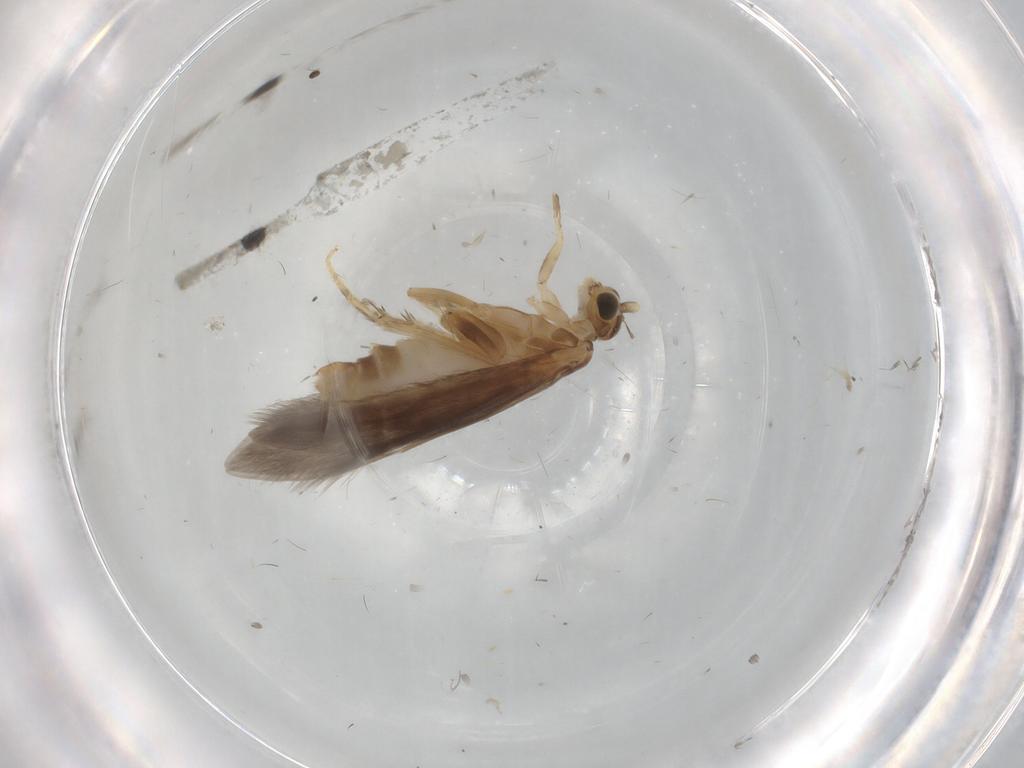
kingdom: Animalia
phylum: Arthropoda
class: Insecta
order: Trichoptera
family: Glossosomatidae
